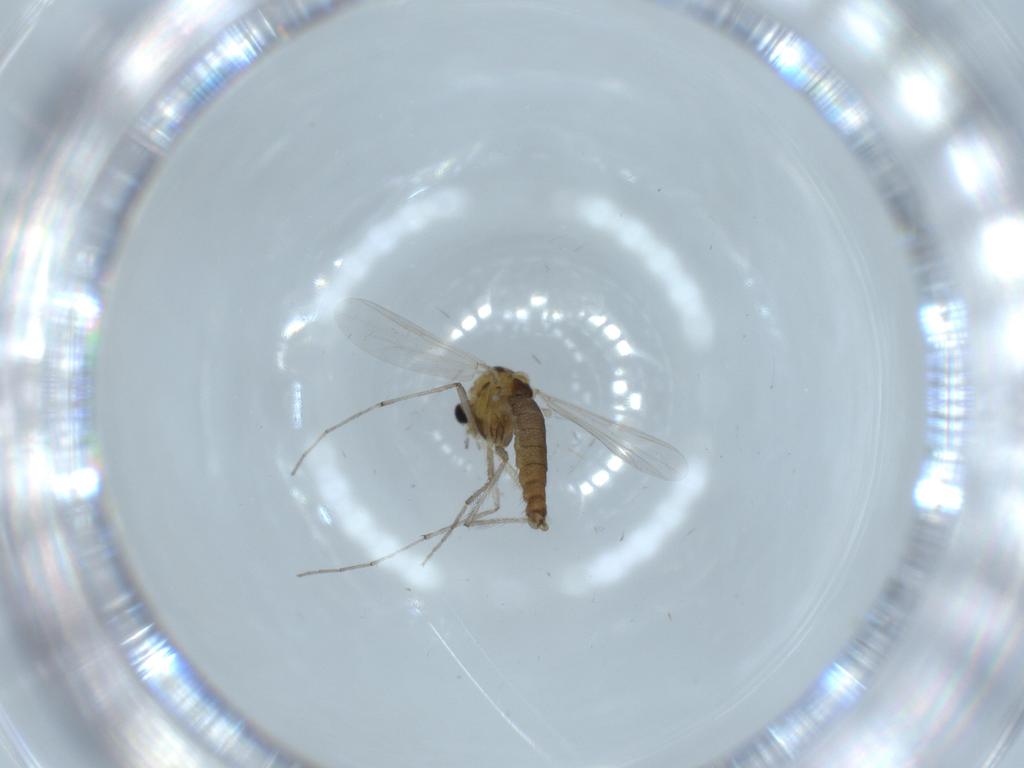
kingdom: Animalia
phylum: Arthropoda
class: Insecta
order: Diptera
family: Chironomidae
